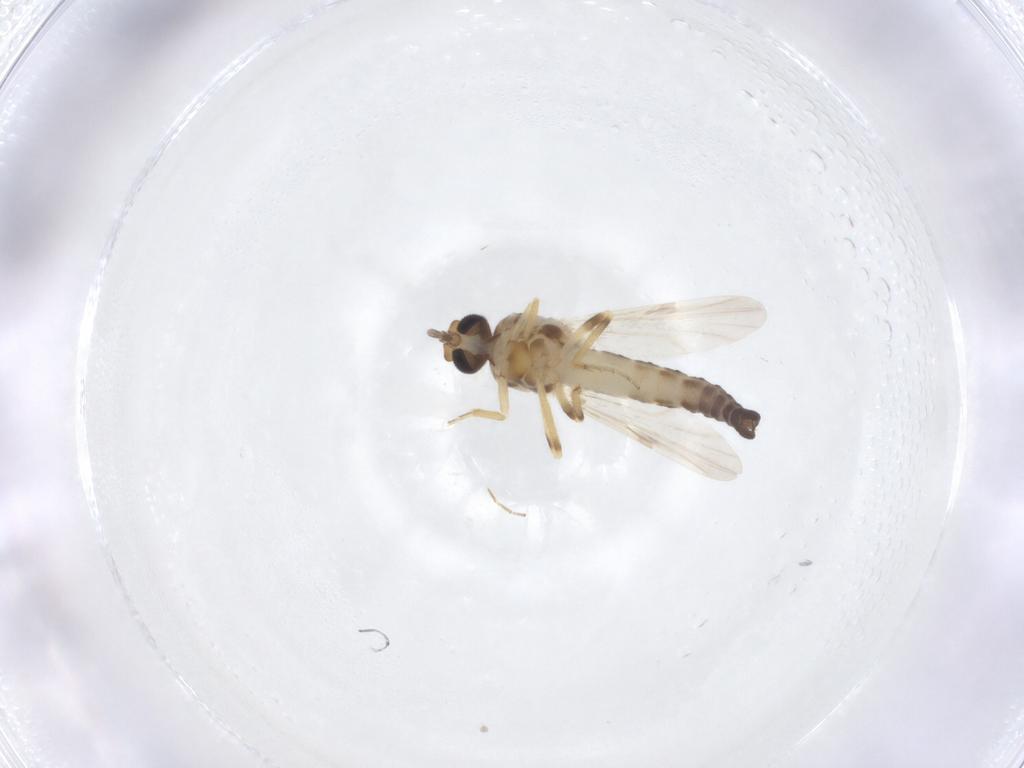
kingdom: Animalia
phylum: Arthropoda
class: Insecta
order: Diptera
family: Ceratopogonidae
